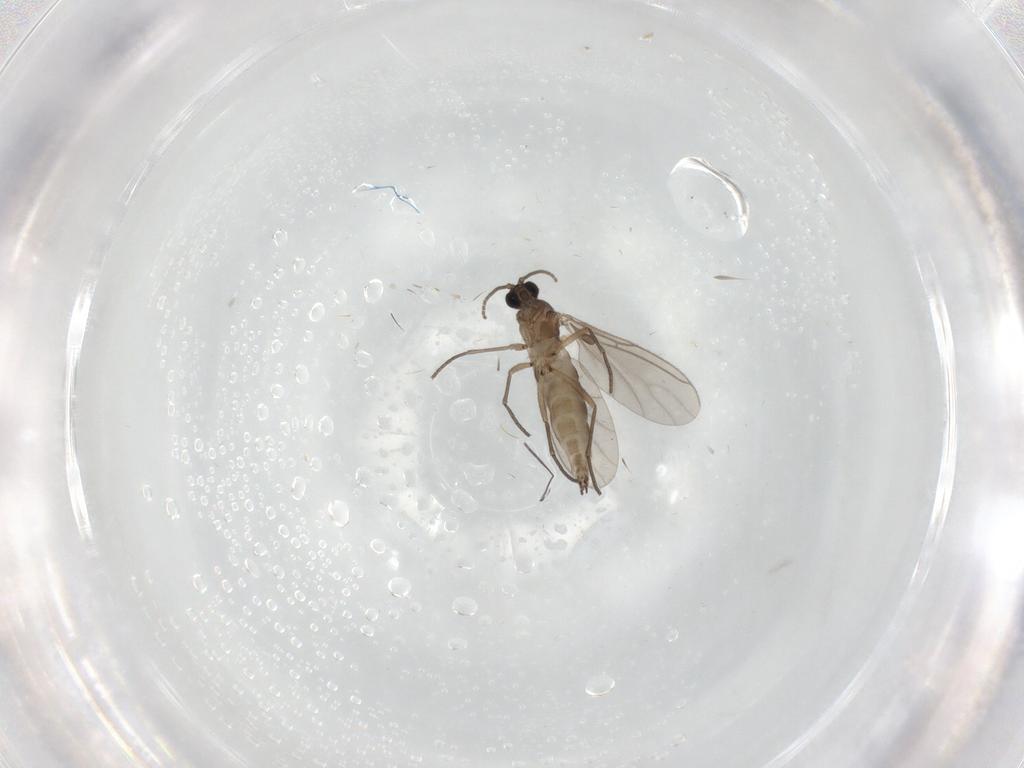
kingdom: Animalia
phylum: Arthropoda
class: Insecta
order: Diptera
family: Sciaridae
